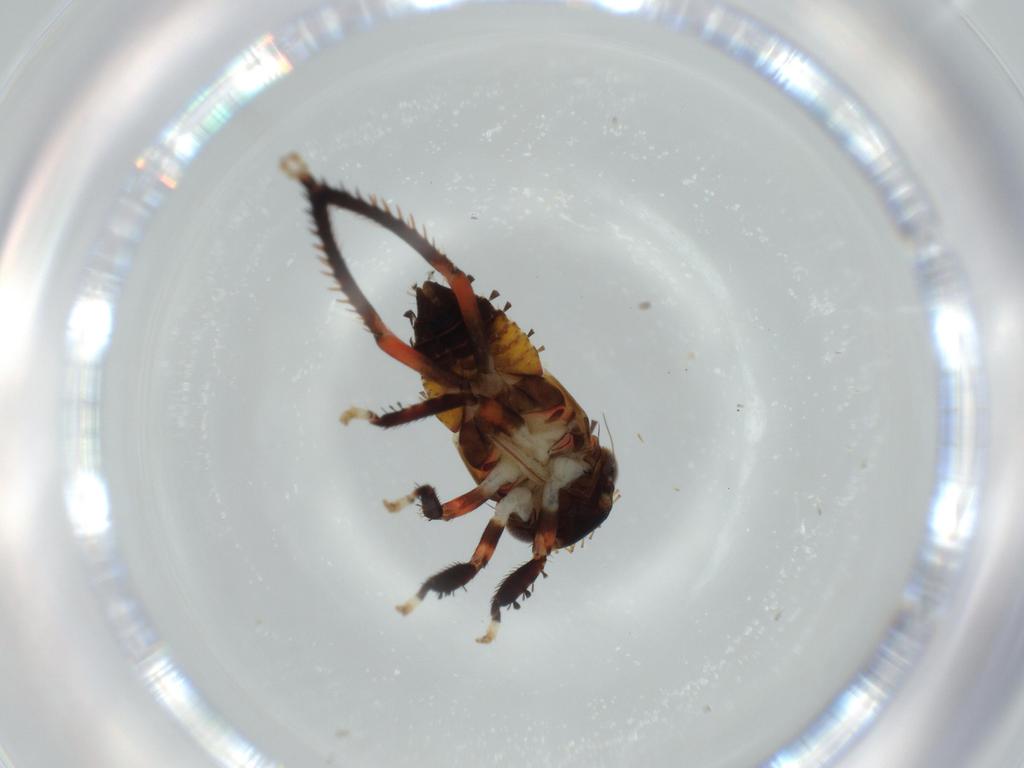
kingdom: Animalia
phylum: Arthropoda
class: Insecta
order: Hemiptera
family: Cicadellidae
